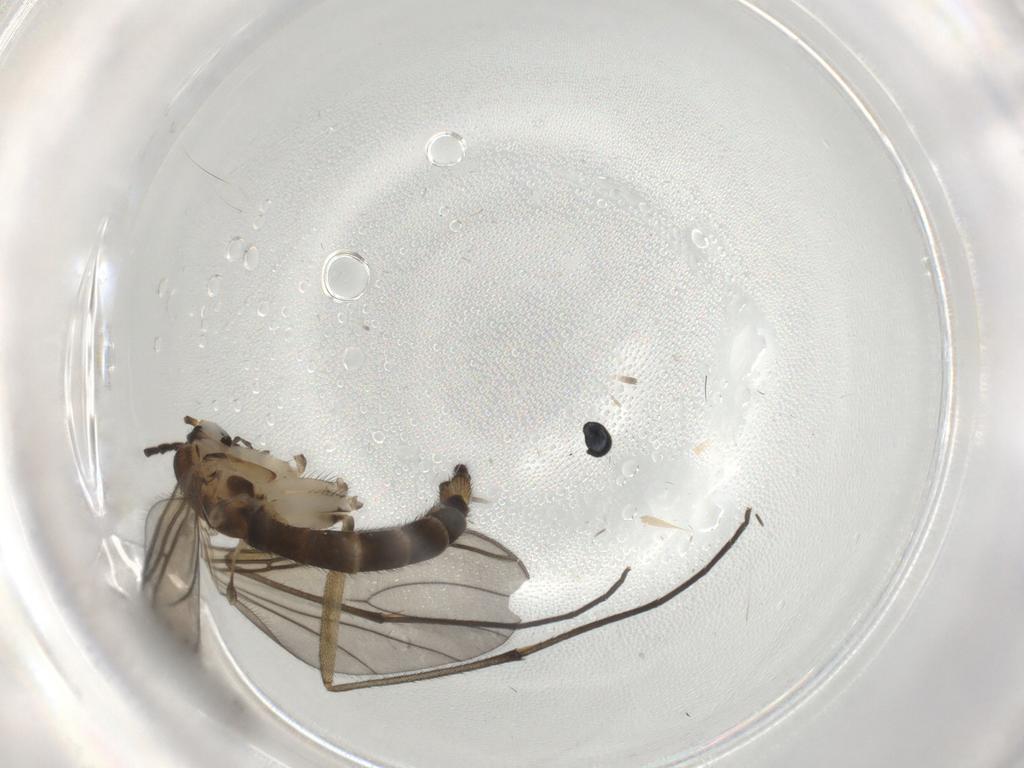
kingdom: Animalia
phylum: Arthropoda
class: Insecta
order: Diptera
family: Sciaridae
